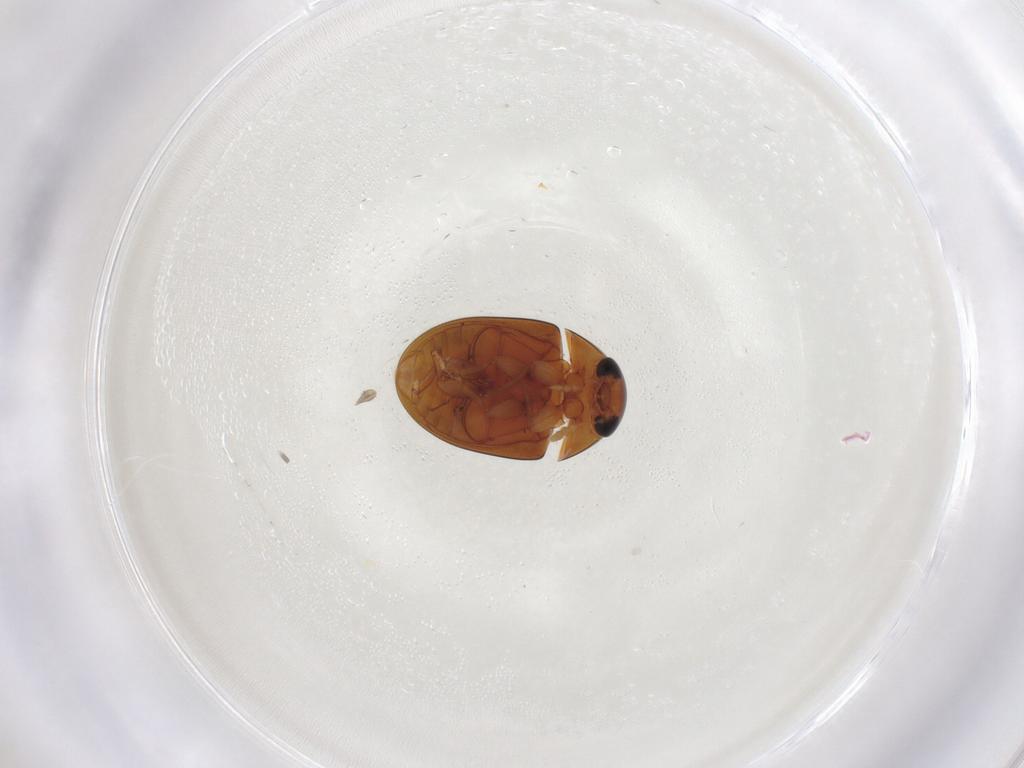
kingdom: Animalia
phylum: Arthropoda
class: Insecta
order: Coleoptera
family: Phalacridae
